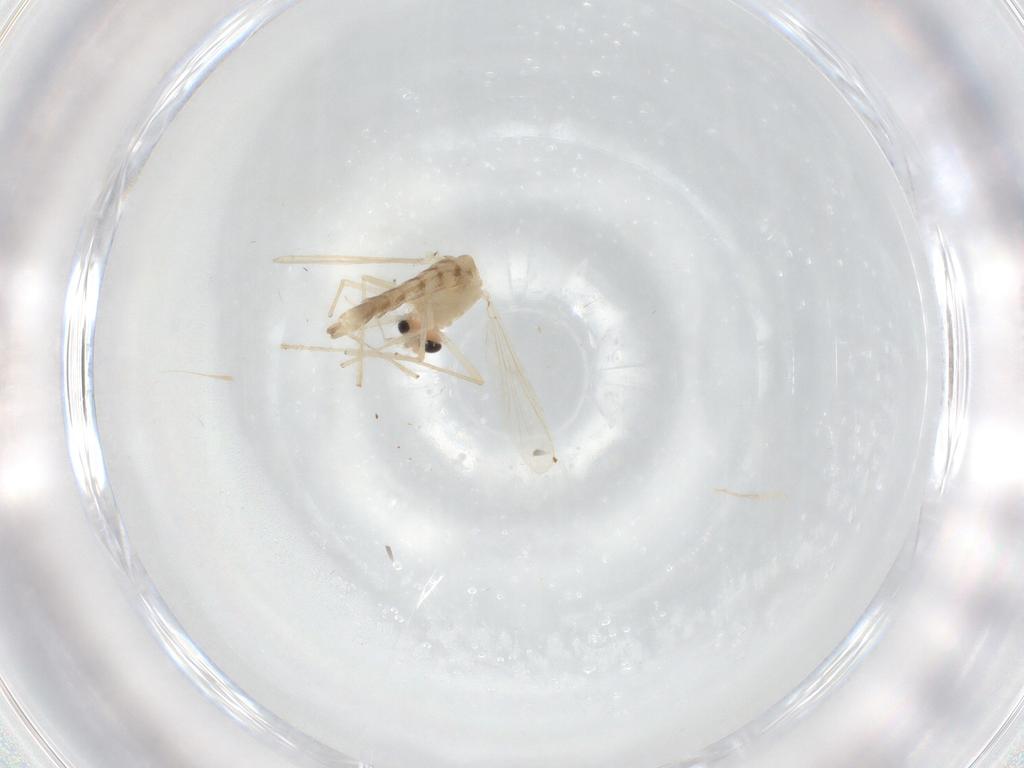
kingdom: Animalia
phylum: Arthropoda
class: Insecta
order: Diptera
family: Chironomidae
